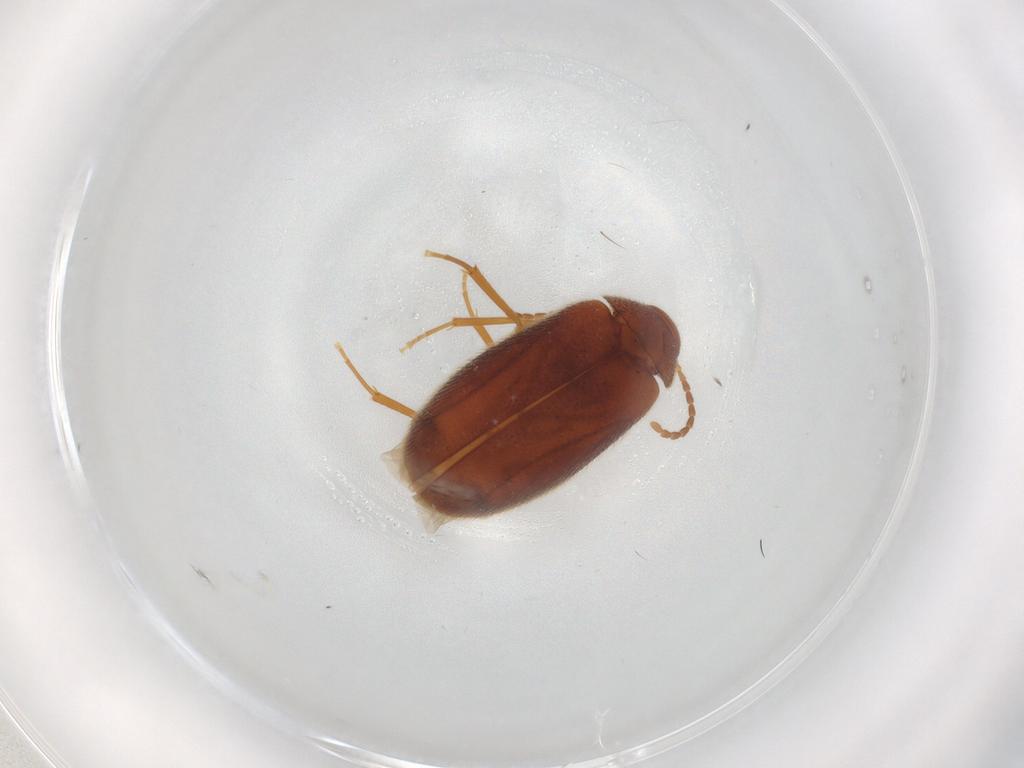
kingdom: Animalia
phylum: Arthropoda
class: Insecta
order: Coleoptera
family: Scraptiidae
